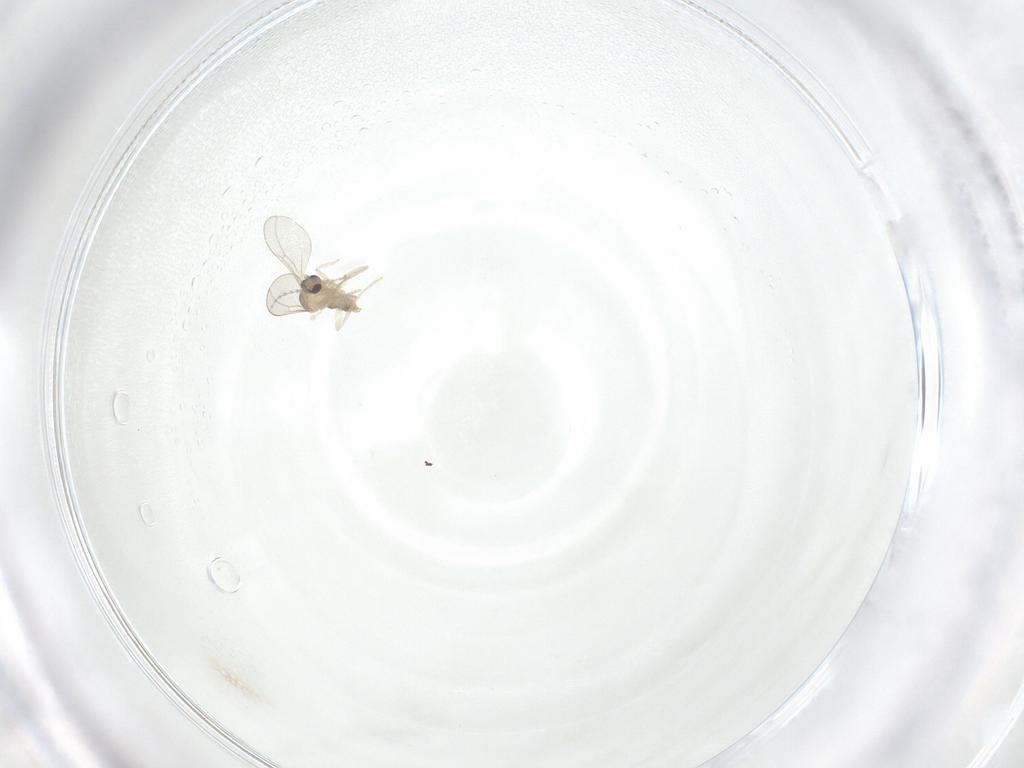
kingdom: Animalia
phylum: Arthropoda
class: Insecta
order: Diptera
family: Cecidomyiidae
